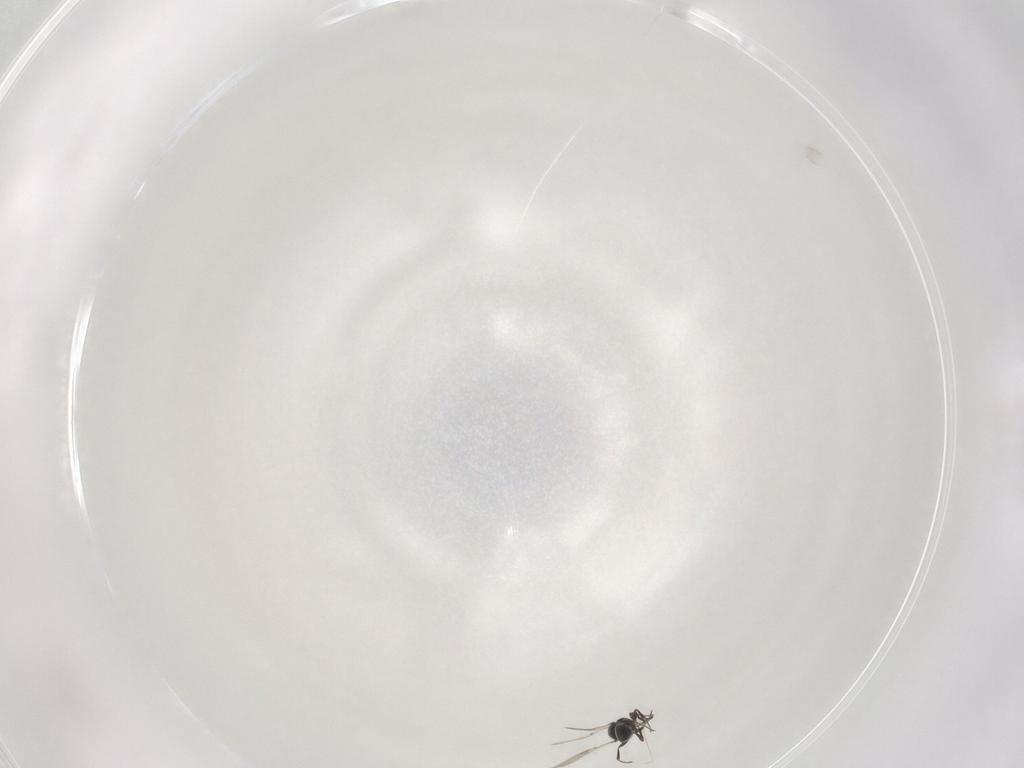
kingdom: Animalia
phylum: Arthropoda
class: Insecta
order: Hymenoptera
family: Scelionidae
